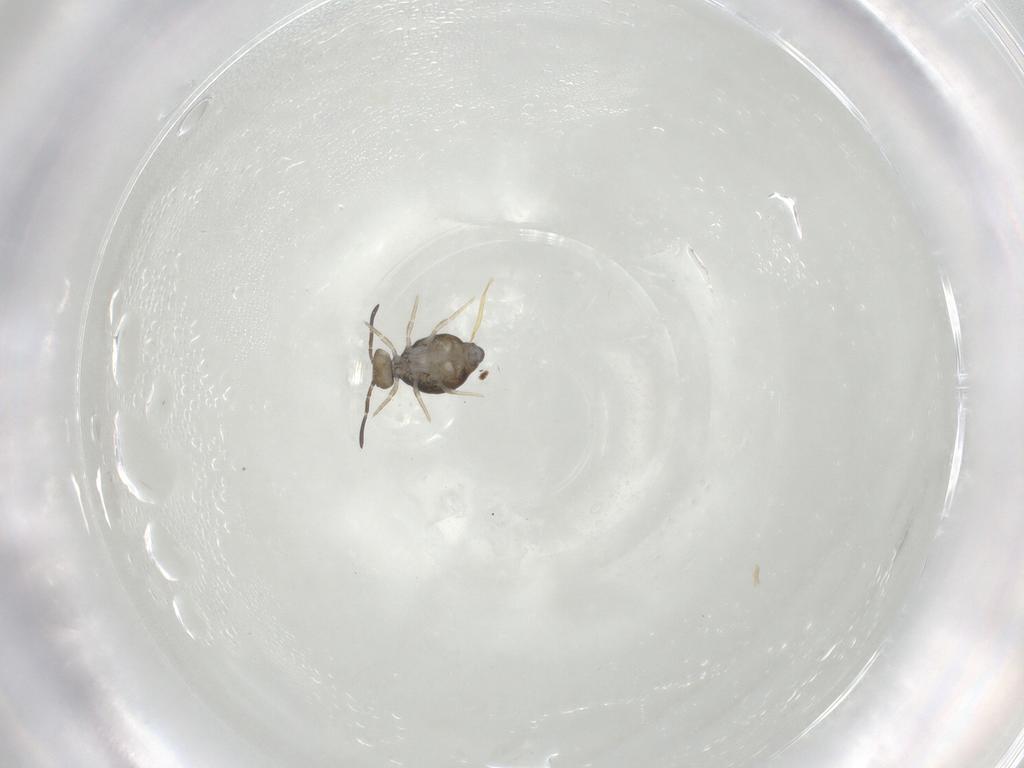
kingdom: Animalia
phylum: Arthropoda
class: Collembola
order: Symphypleona
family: Katiannidae
